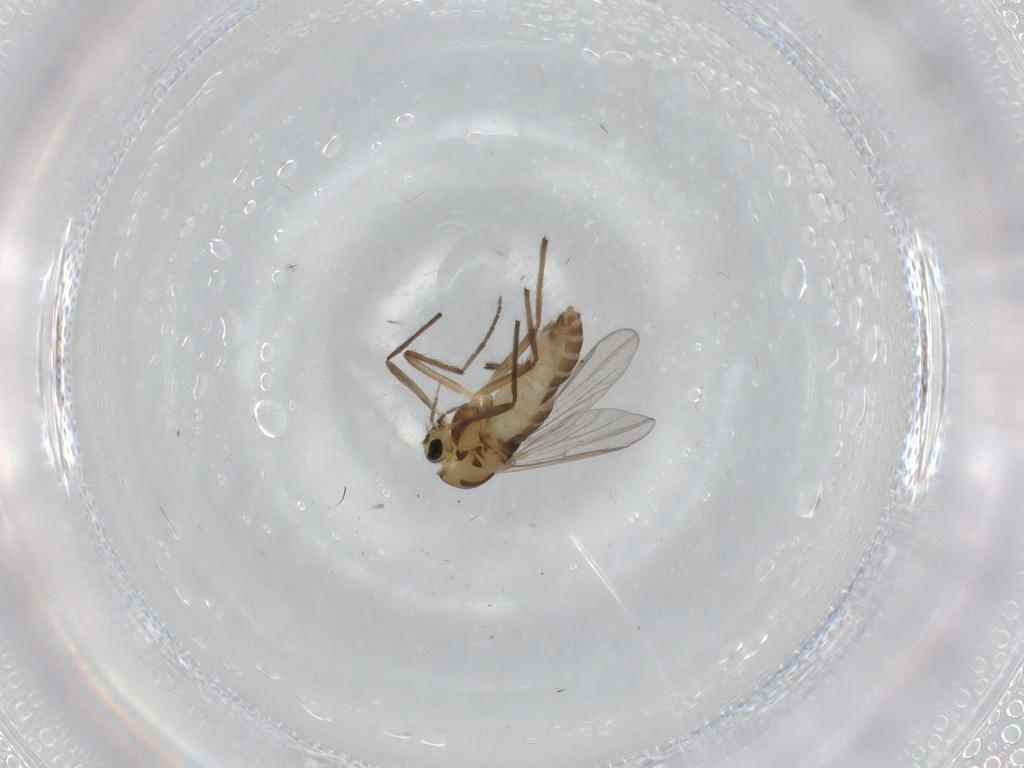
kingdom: Animalia
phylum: Arthropoda
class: Insecta
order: Diptera
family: Chironomidae
